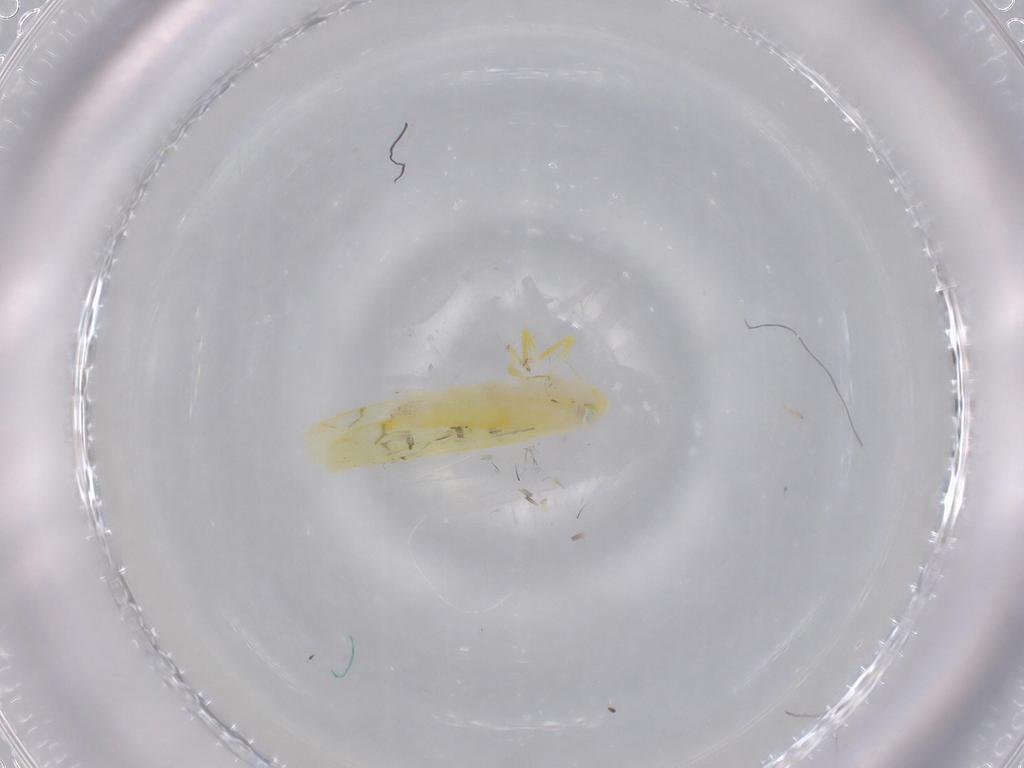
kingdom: Animalia
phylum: Arthropoda
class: Insecta
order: Hemiptera
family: Cicadellidae
